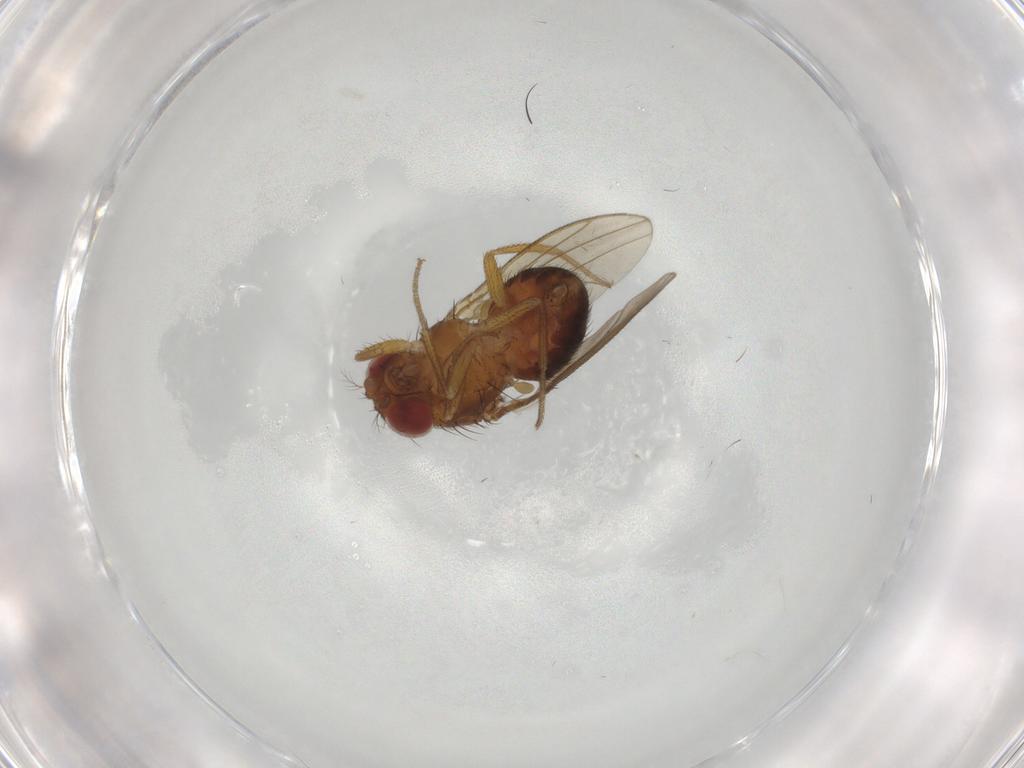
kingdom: Animalia
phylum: Arthropoda
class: Insecta
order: Diptera
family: Drosophilidae
